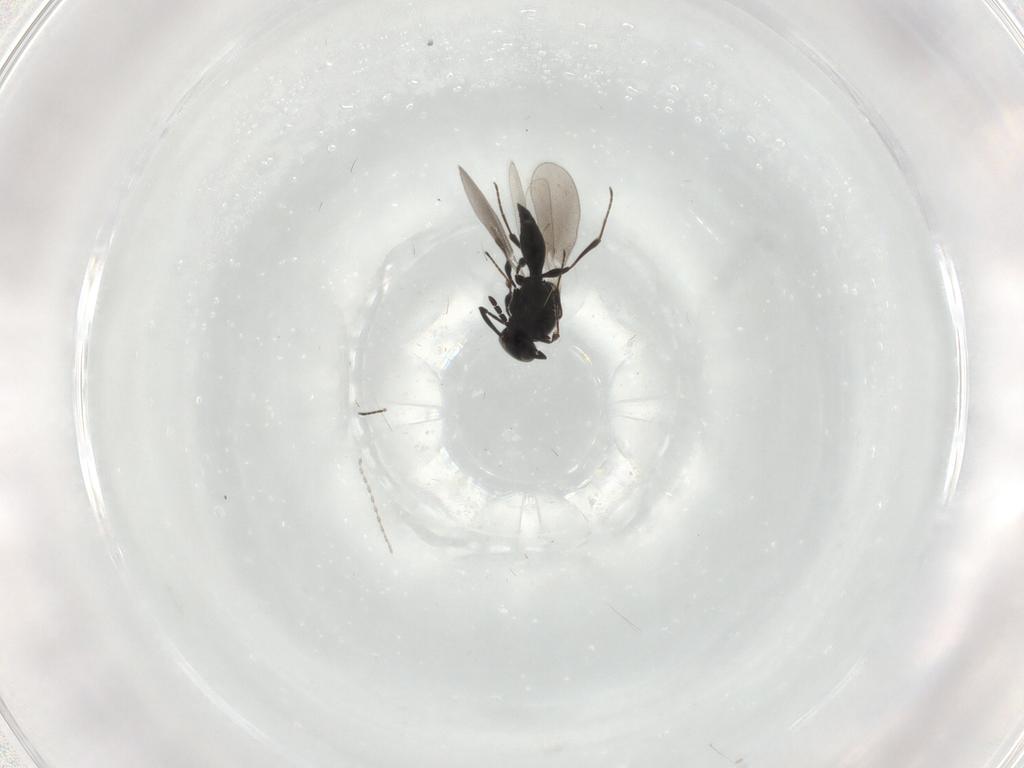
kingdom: Animalia
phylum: Arthropoda
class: Insecta
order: Hymenoptera
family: Platygastridae
